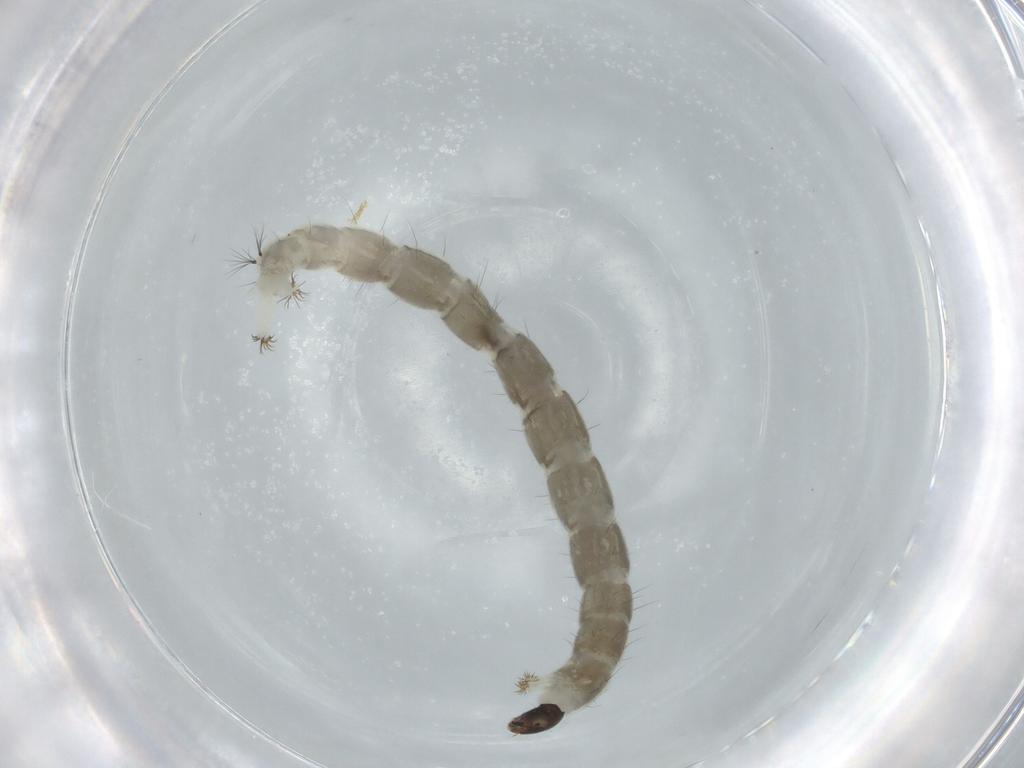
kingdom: Animalia
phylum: Arthropoda
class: Insecta
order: Diptera
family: Chironomidae
